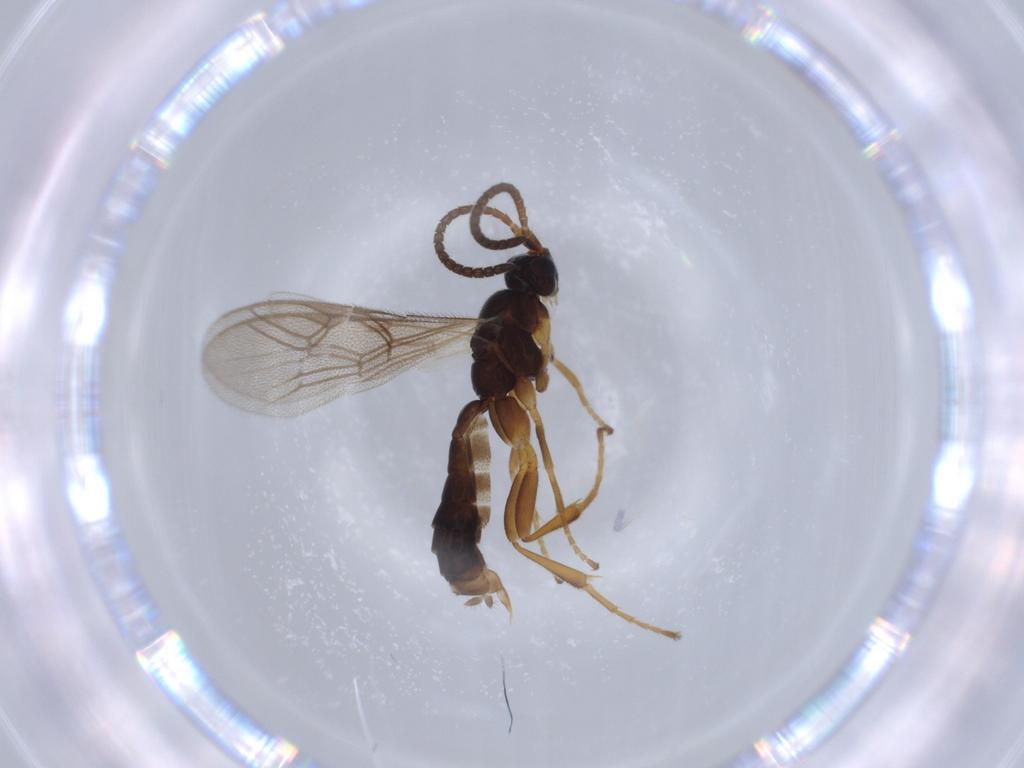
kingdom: Animalia
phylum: Arthropoda
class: Insecta
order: Hymenoptera
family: Ichneumonidae
